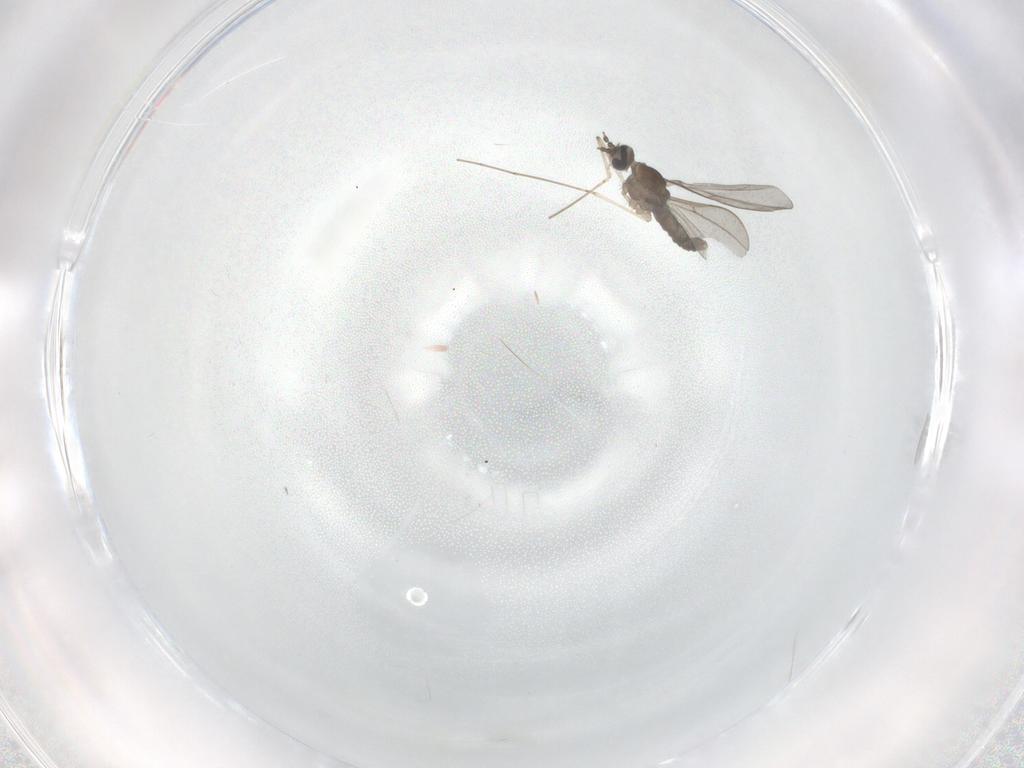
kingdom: Animalia
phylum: Arthropoda
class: Insecta
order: Diptera
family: Cecidomyiidae
